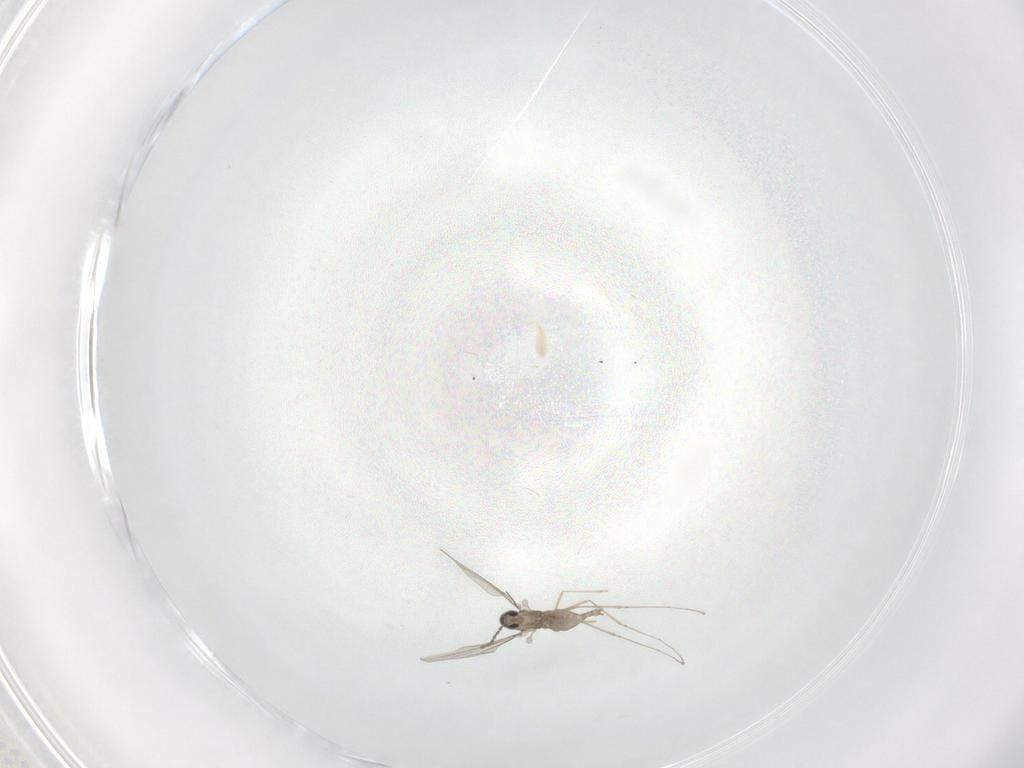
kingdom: Animalia
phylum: Arthropoda
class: Insecta
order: Diptera
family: Cecidomyiidae
